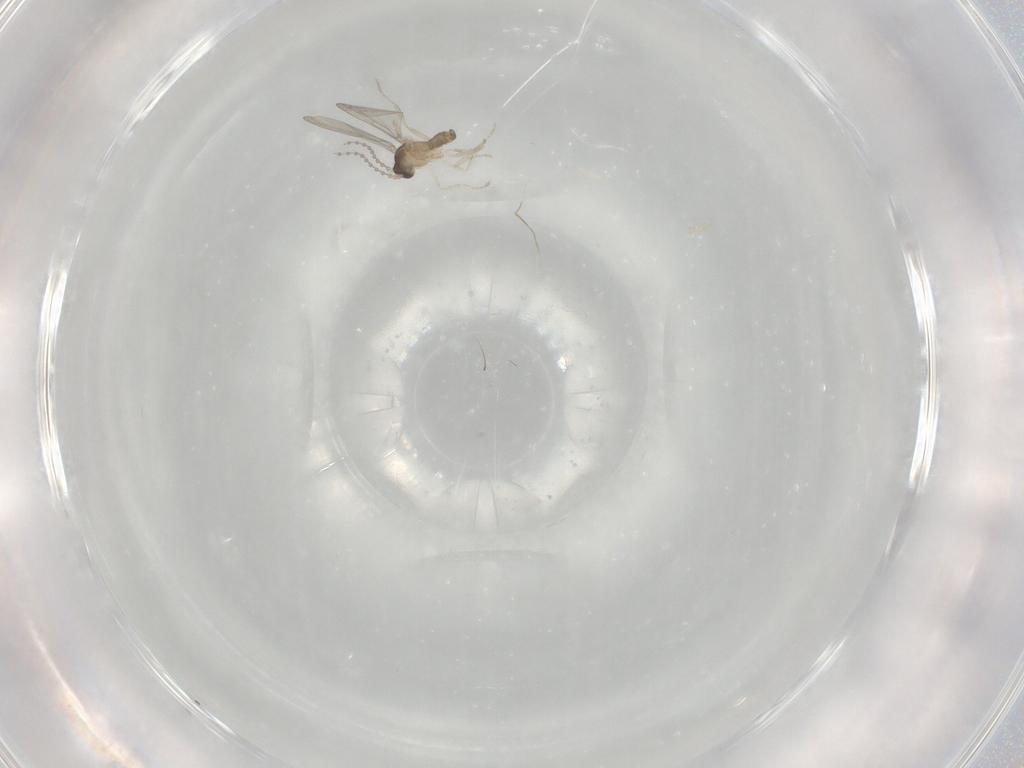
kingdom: Animalia
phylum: Arthropoda
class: Insecta
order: Diptera
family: Cecidomyiidae
